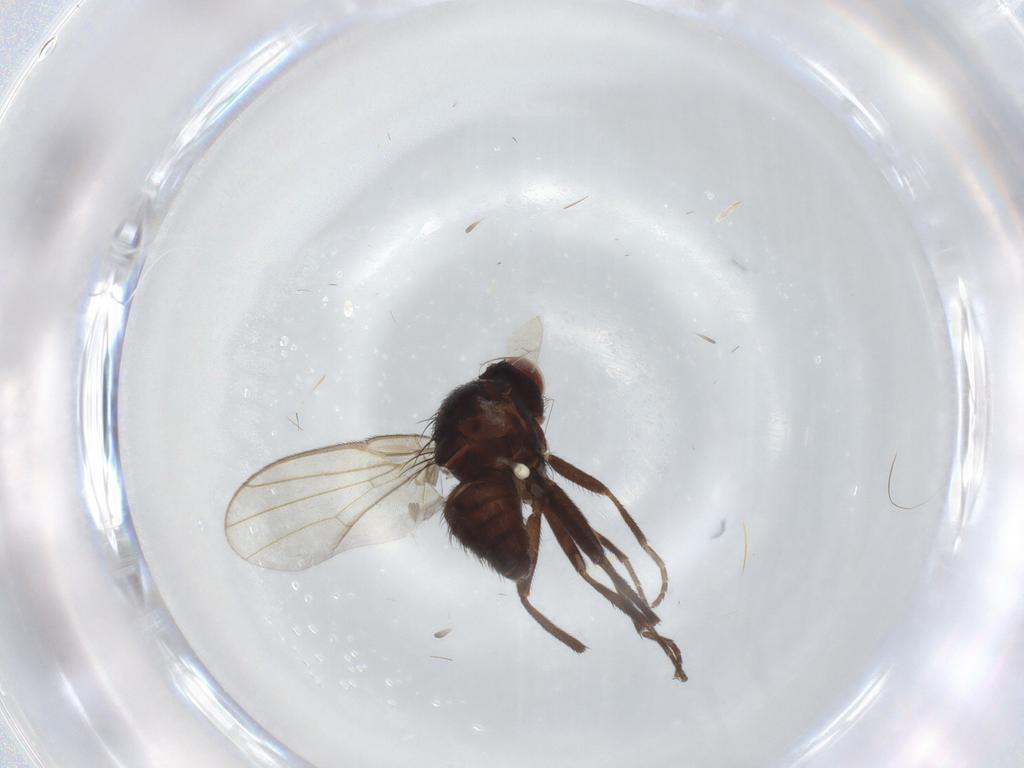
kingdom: Animalia
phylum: Arthropoda
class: Insecta
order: Diptera
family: Agromyzidae
